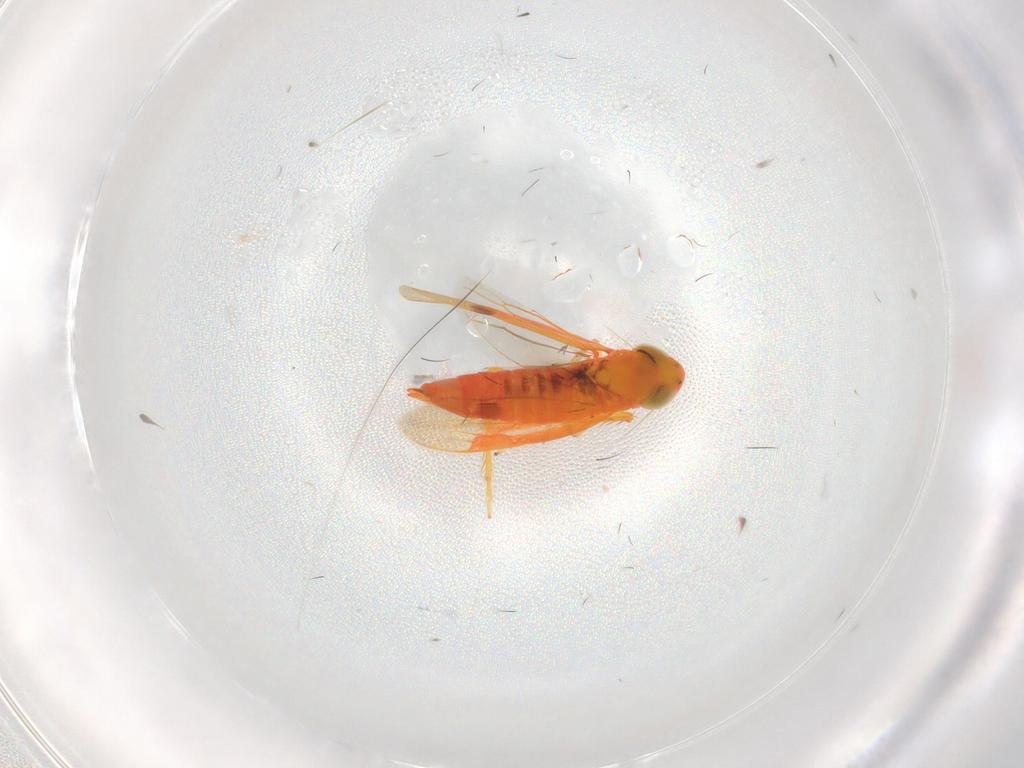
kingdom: Animalia
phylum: Arthropoda
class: Insecta
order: Hemiptera
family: Cicadellidae
